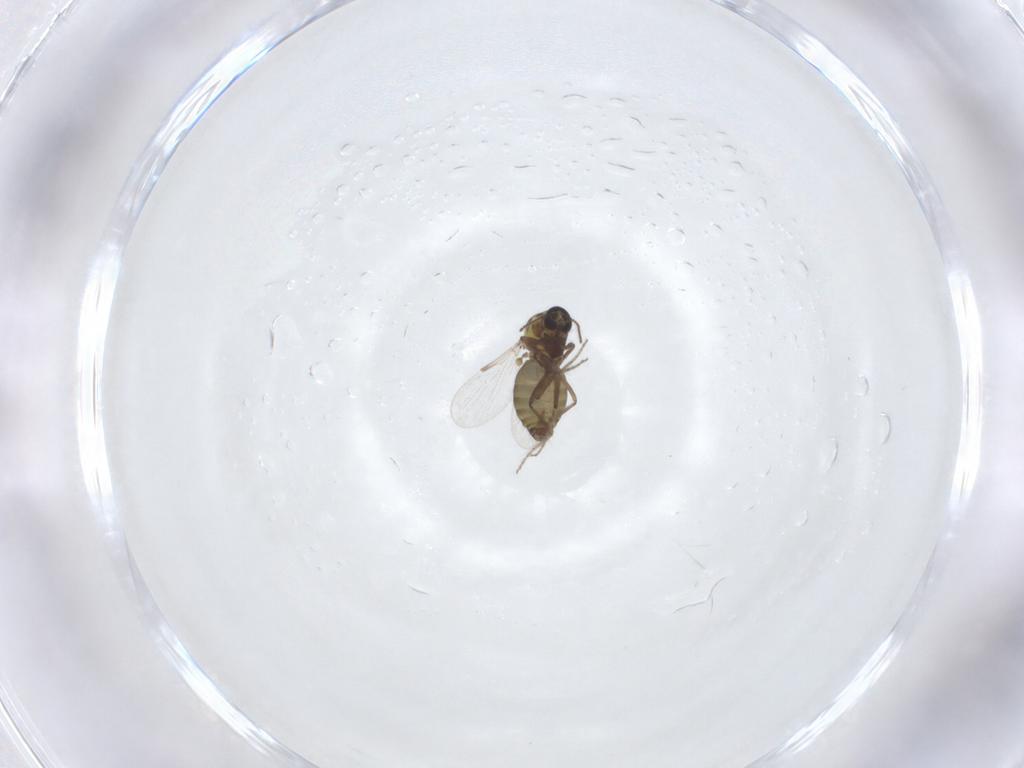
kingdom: Animalia
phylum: Arthropoda
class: Insecta
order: Diptera
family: Ceratopogonidae
